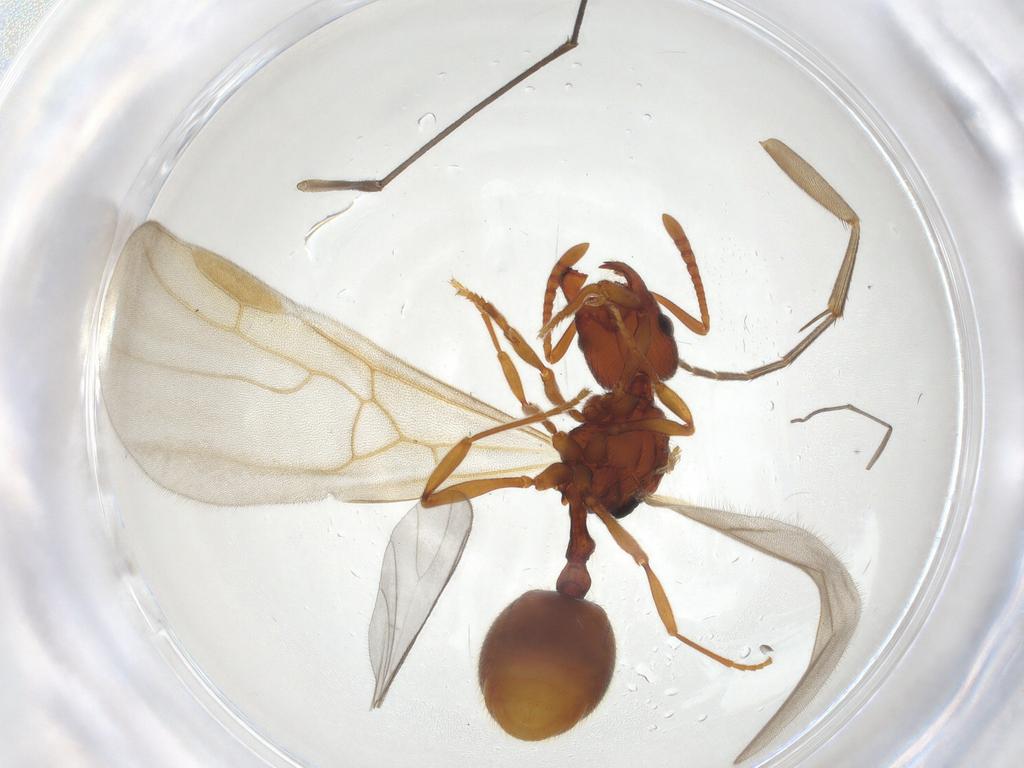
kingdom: Animalia
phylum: Arthropoda
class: Insecta
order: Hymenoptera
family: Formicidae
